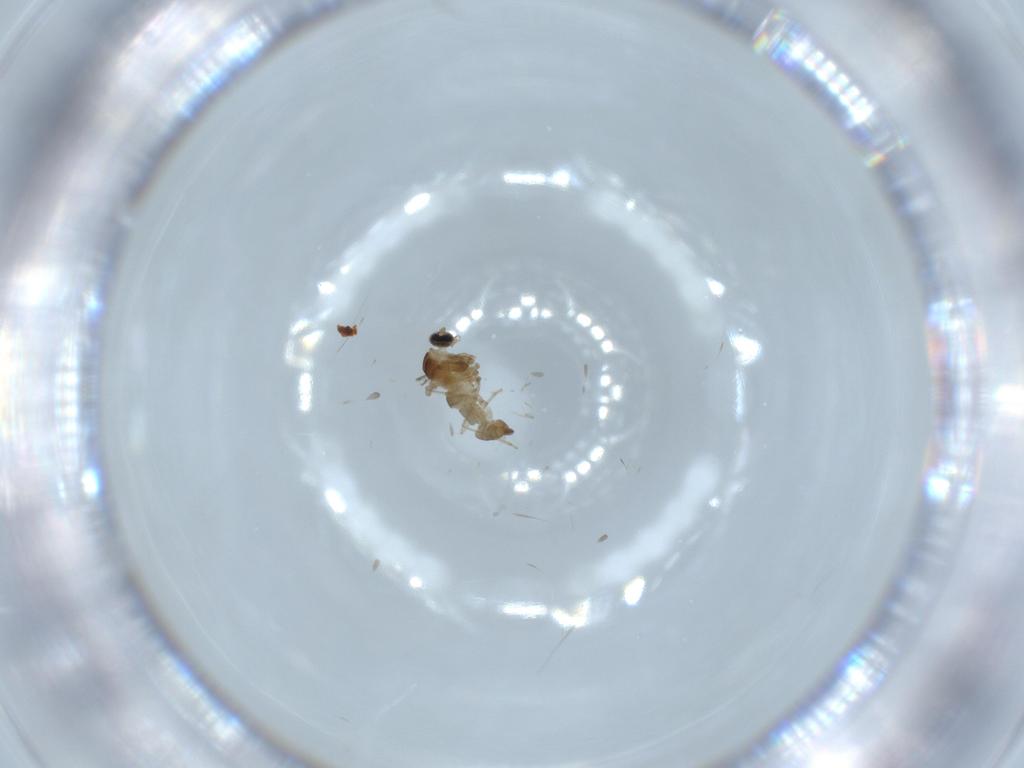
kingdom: Animalia
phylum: Arthropoda
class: Insecta
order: Diptera
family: Cecidomyiidae
